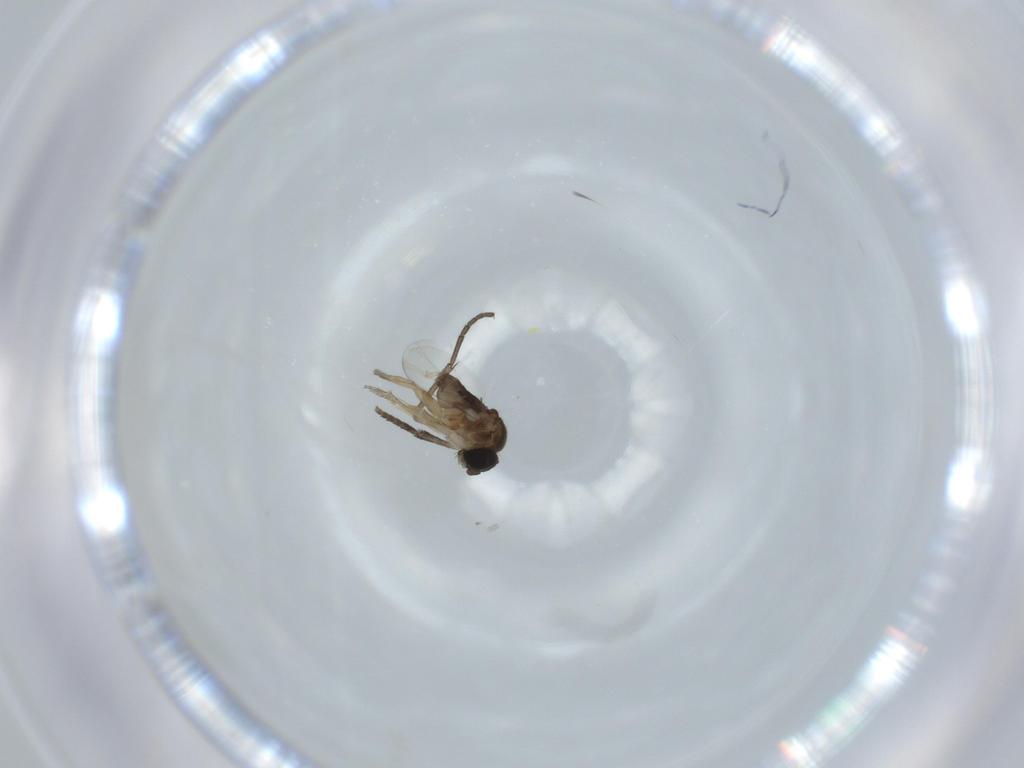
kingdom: Animalia
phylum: Arthropoda
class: Insecta
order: Diptera
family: Phoridae
